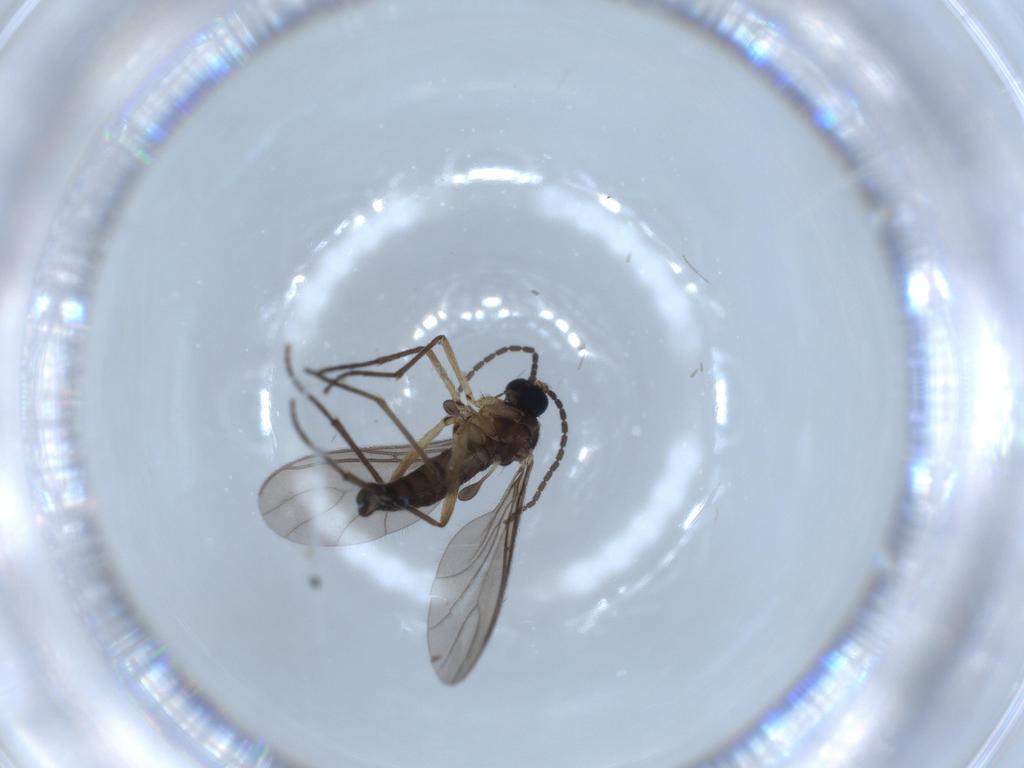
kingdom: Animalia
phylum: Arthropoda
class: Insecta
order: Diptera
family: Sciaridae
